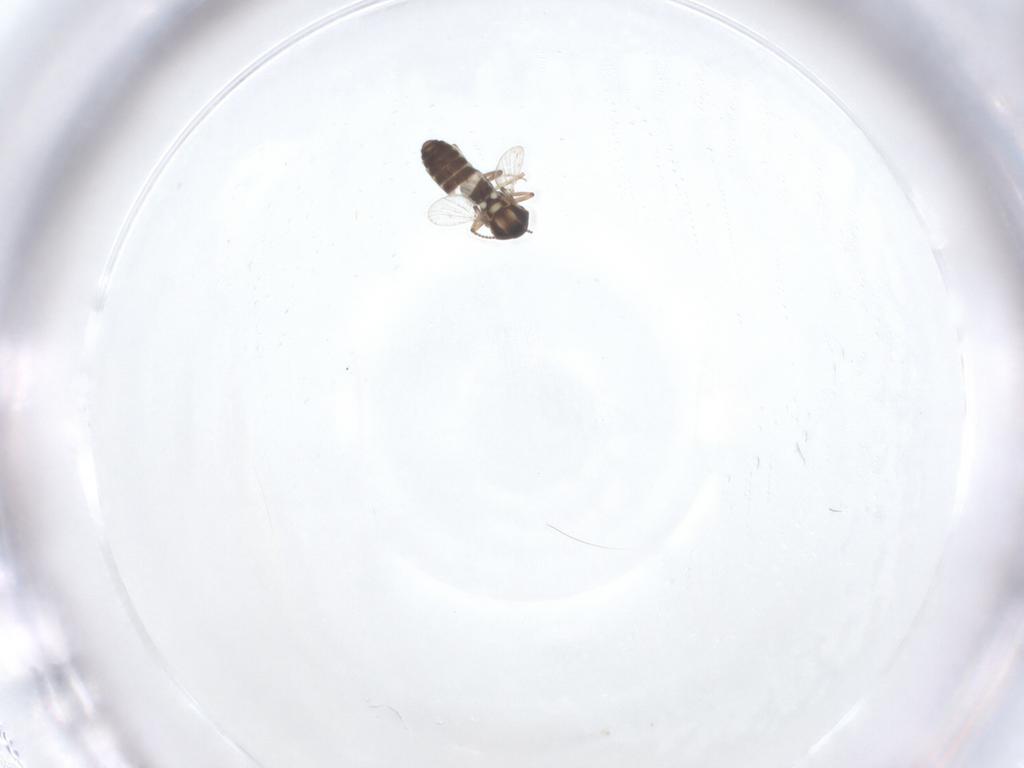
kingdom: Animalia
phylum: Arthropoda
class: Insecta
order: Diptera
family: Ceratopogonidae
